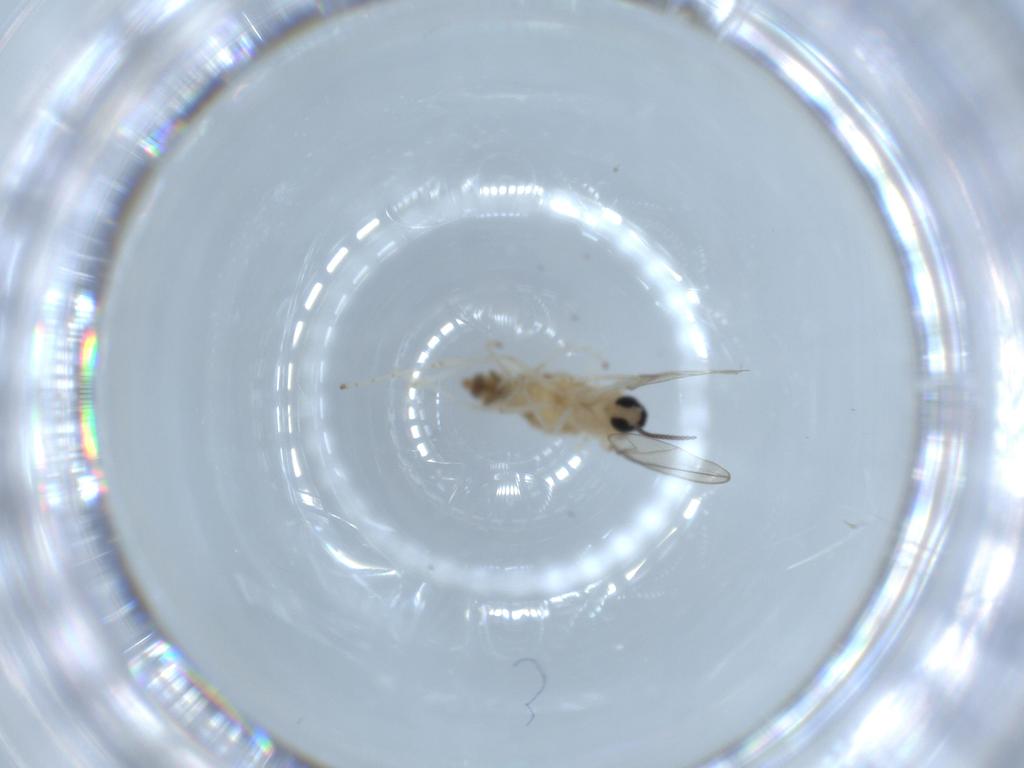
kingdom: Animalia
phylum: Arthropoda
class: Insecta
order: Diptera
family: Cecidomyiidae
